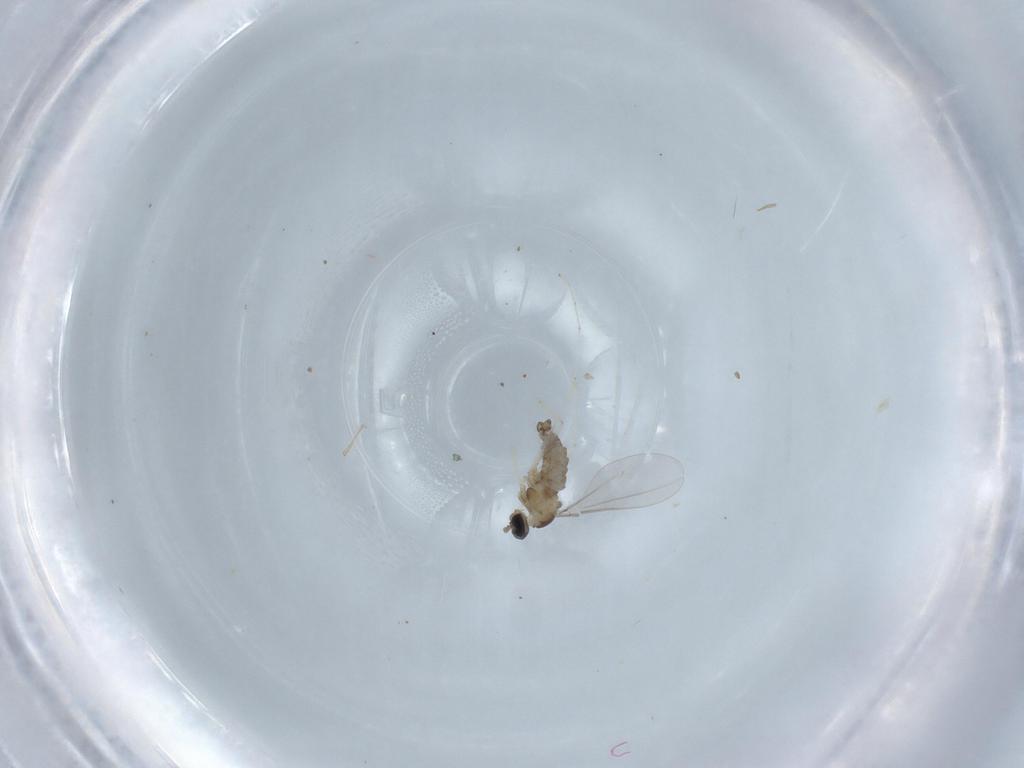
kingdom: Animalia
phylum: Arthropoda
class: Insecta
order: Diptera
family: Cecidomyiidae
